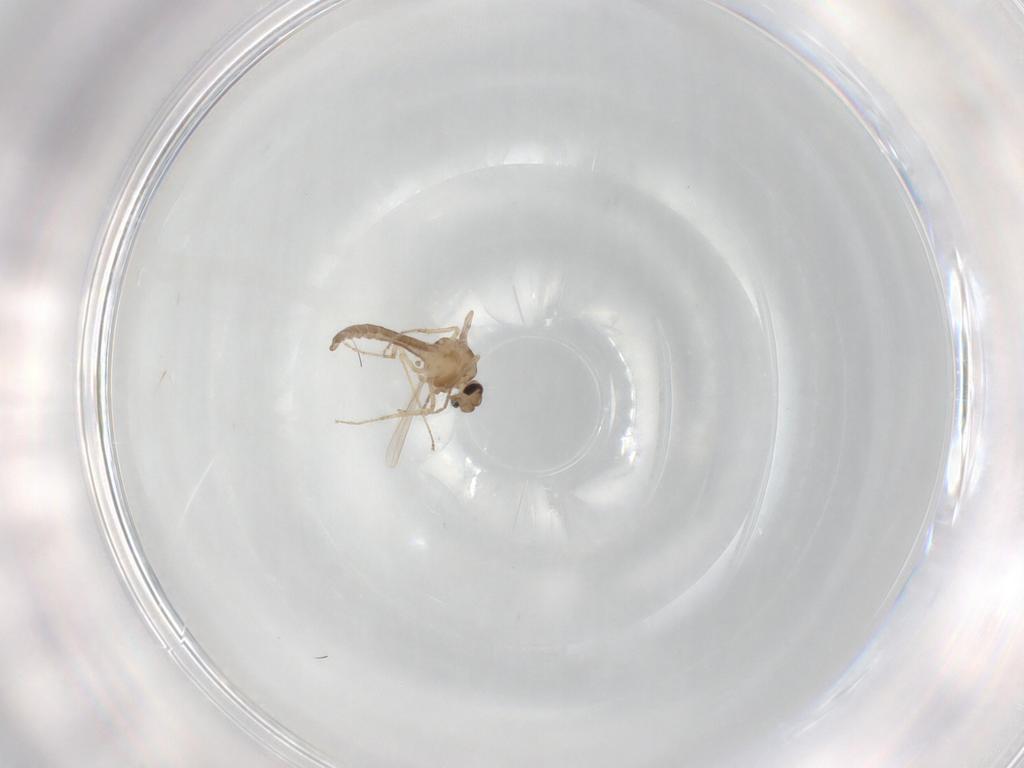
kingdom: Animalia
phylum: Arthropoda
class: Insecta
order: Diptera
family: Ceratopogonidae
